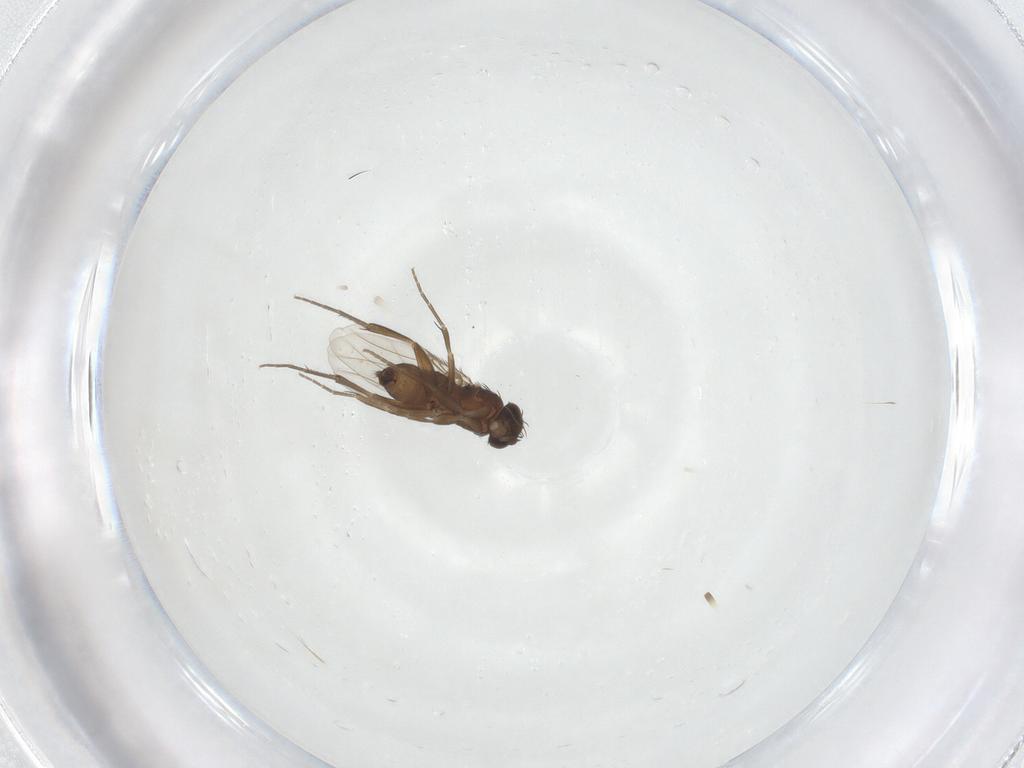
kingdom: Animalia
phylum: Arthropoda
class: Insecta
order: Diptera
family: Phoridae
